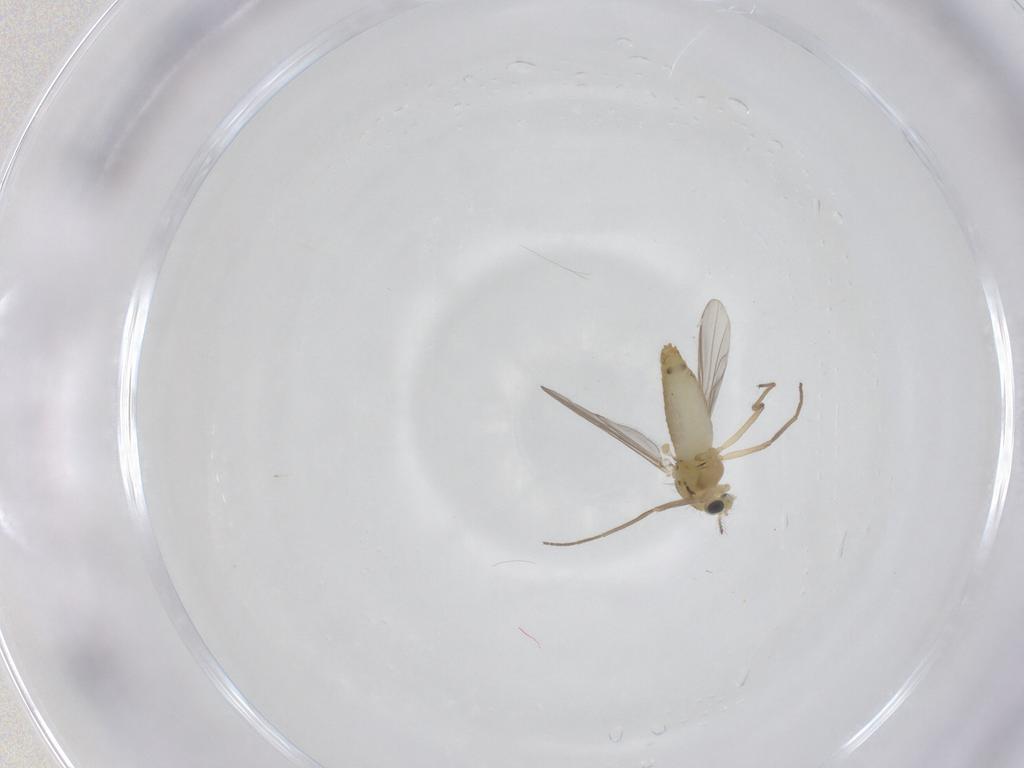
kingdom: Animalia
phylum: Arthropoda
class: Insecta
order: Diptera
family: Chironomidae
